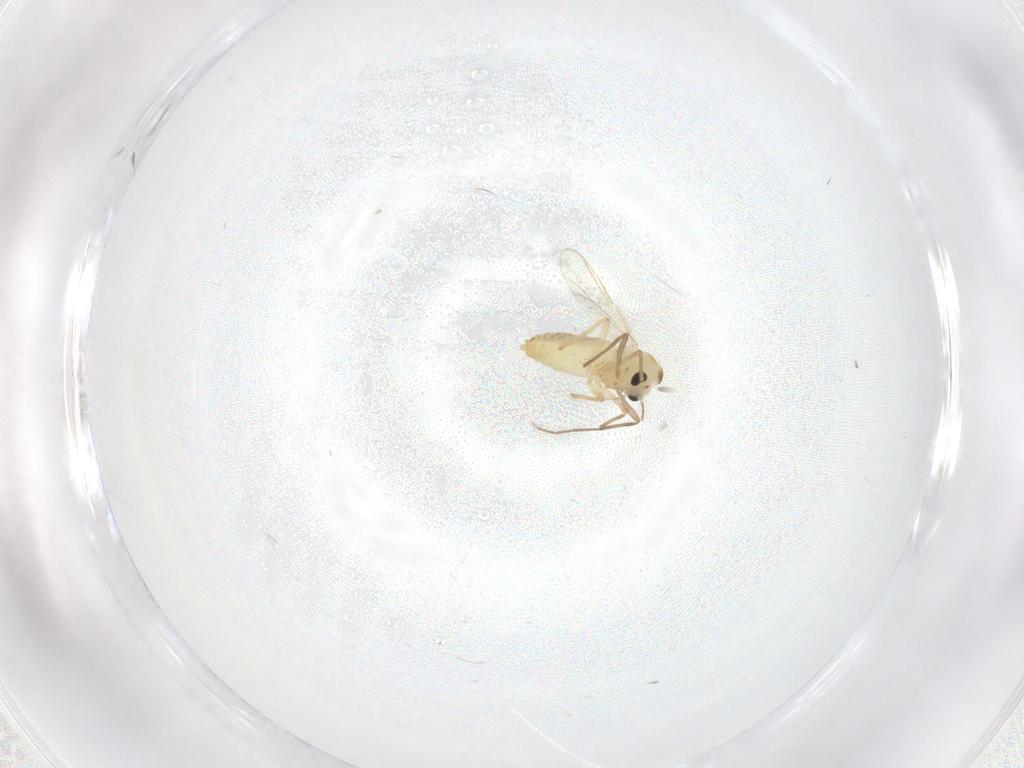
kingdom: Animalia
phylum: Arthropoda
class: Insecta
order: Diptera
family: Chironomidae
